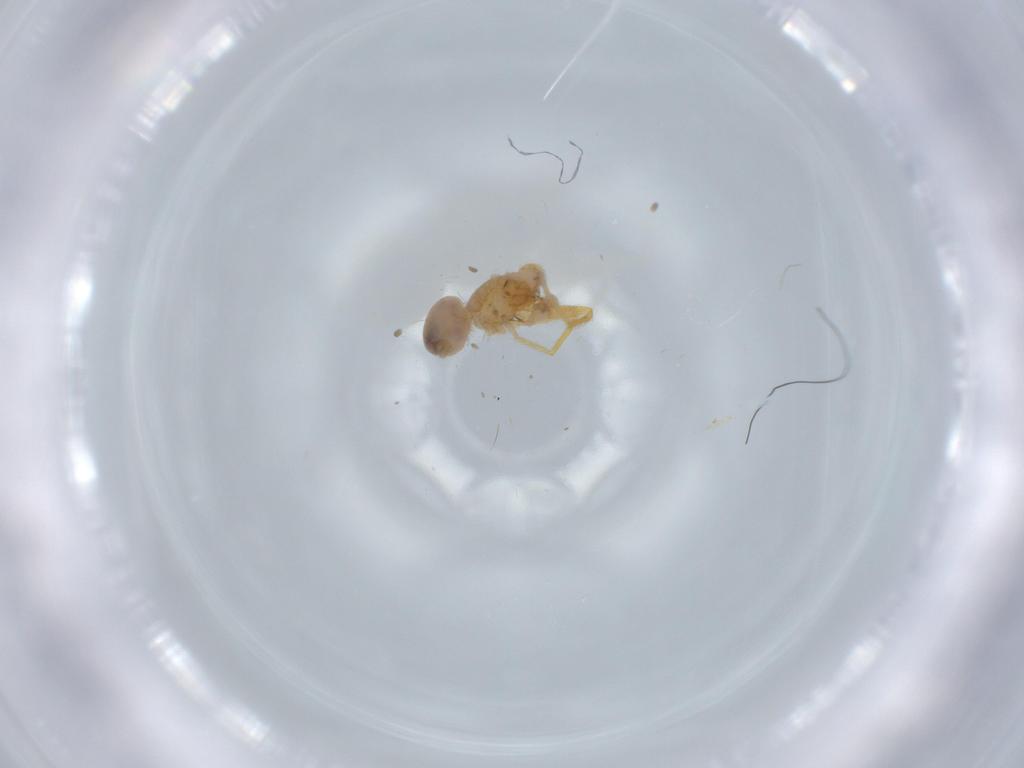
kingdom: Animalia
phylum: Arthropoda
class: Arachnida
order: Araneae
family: Oonopidae
